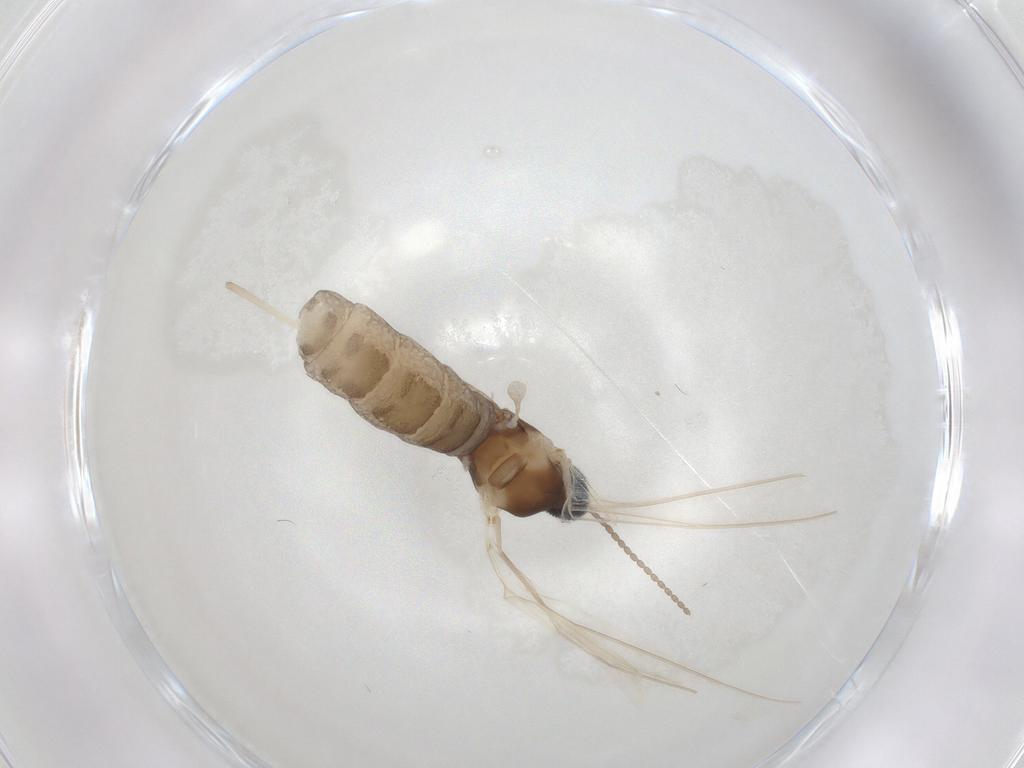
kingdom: Animalia
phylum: Arthropoda
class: Insecta
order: Diptera
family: Cecidomyiidae
